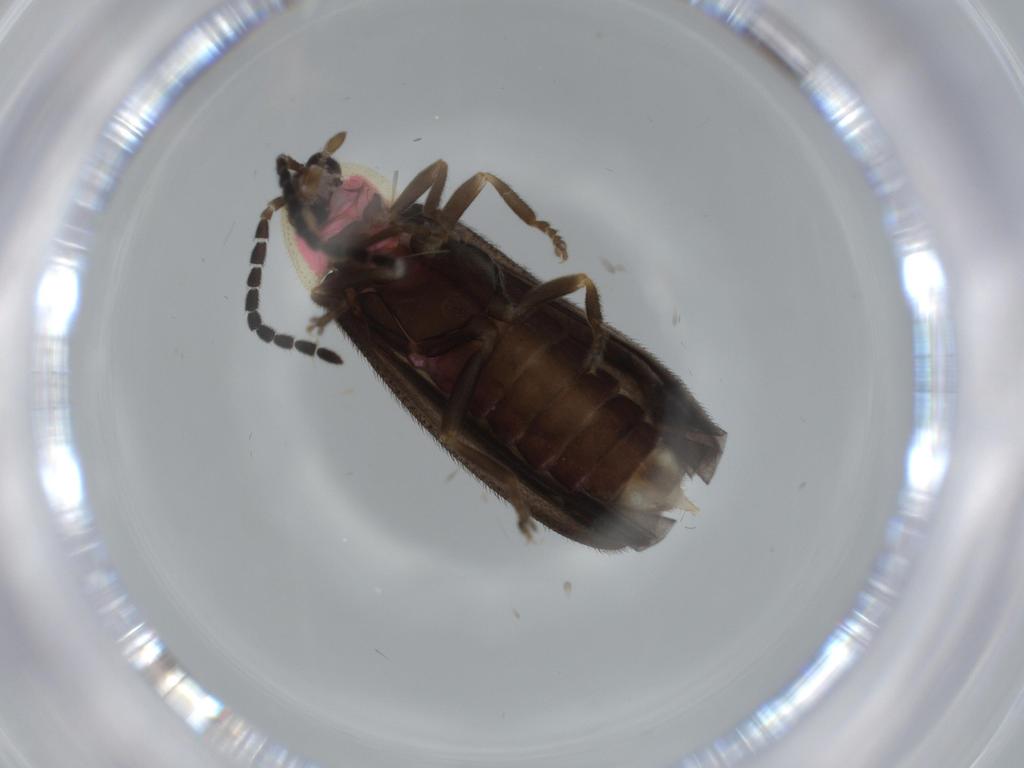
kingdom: Animalia
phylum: Arthropoda
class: Insecta
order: Coleoptera
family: Lampyridae
